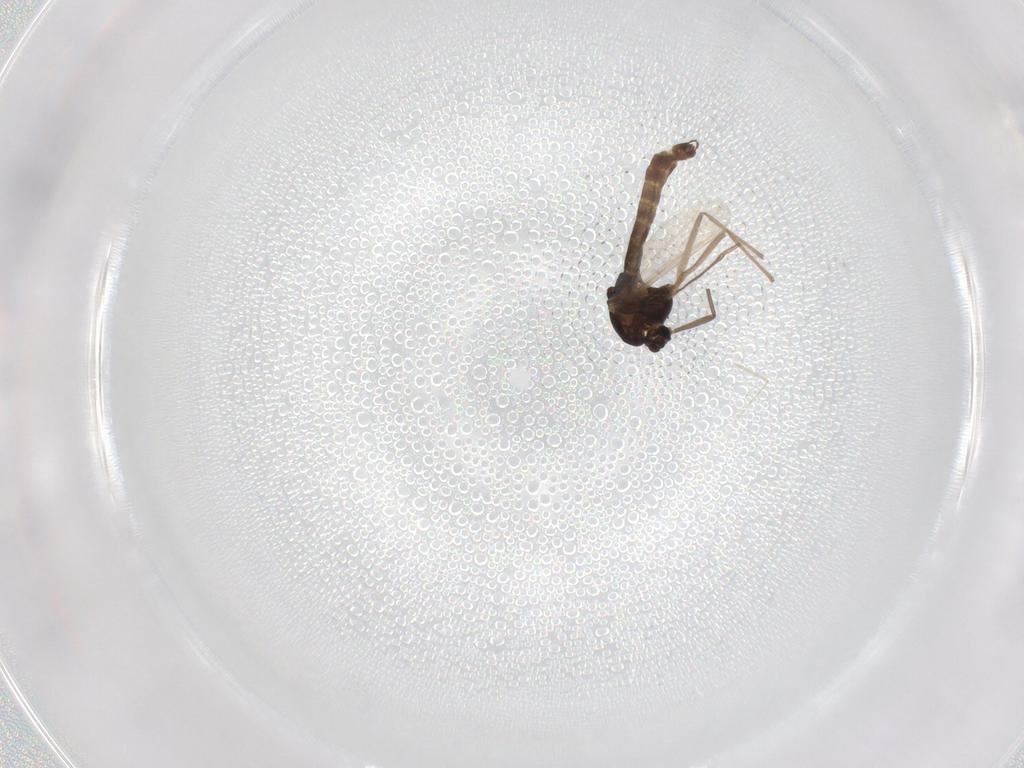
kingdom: Animalia
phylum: Arthropoda
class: Insecta
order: Diptera
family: Chironomidae
